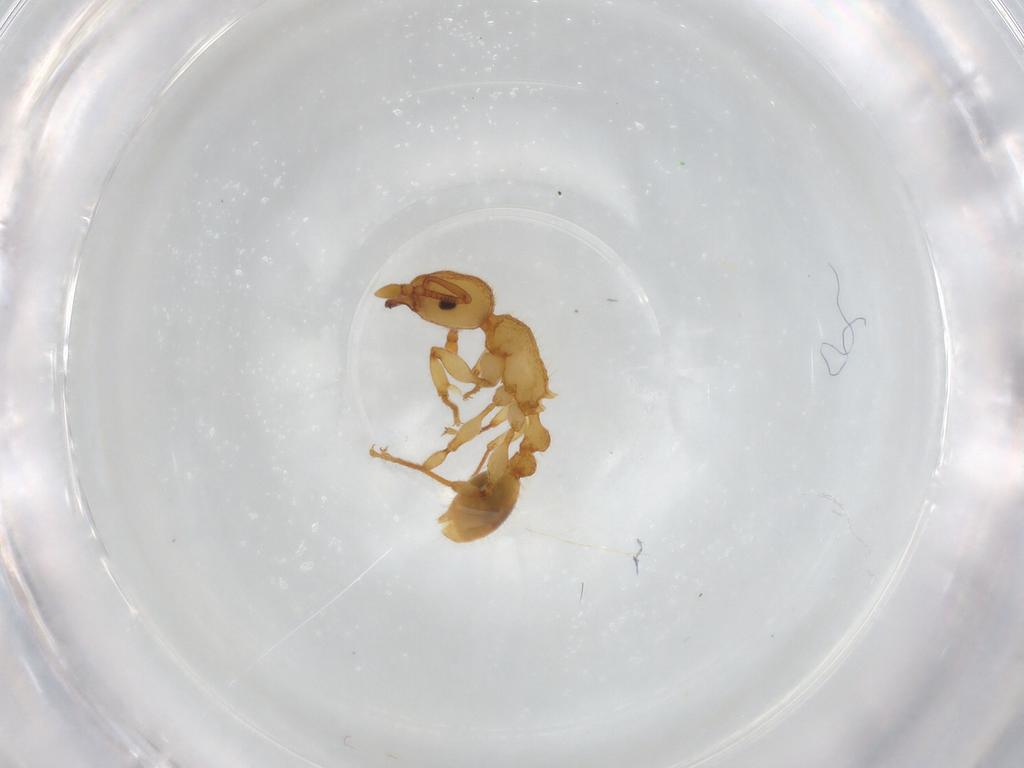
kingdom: Animalia
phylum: Arthropoda
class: Insecta
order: Hymenoptera
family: Formicidae
